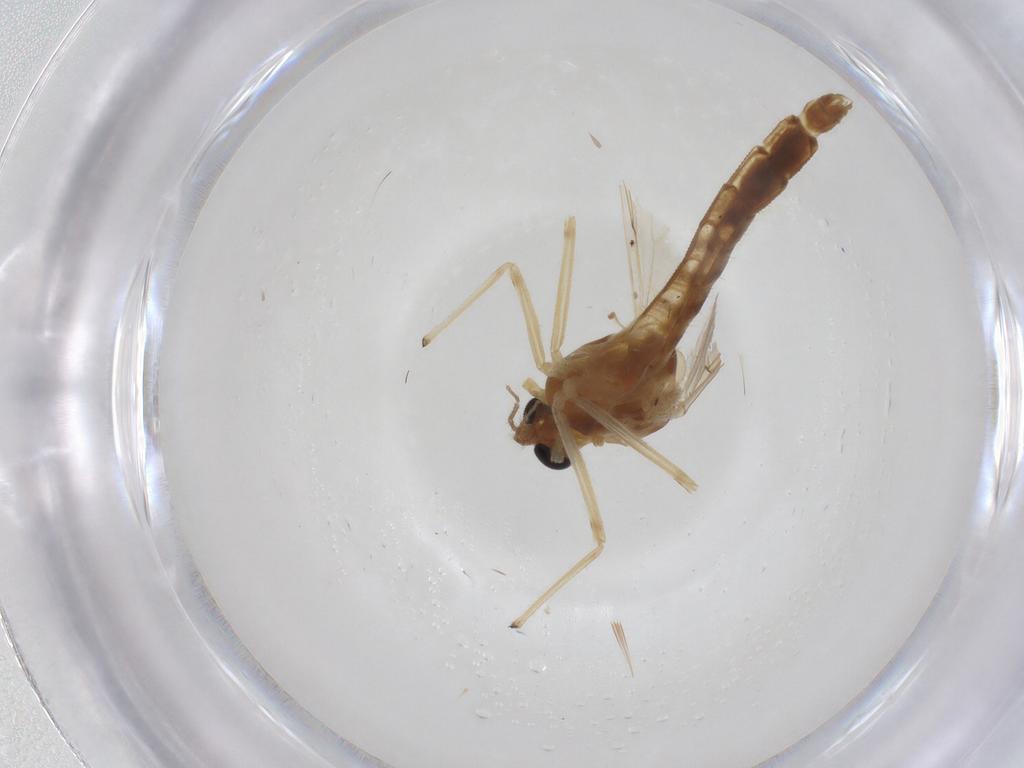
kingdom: Animalia
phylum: Arthropoda
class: Insecta
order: Diptera
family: Chironomidae
